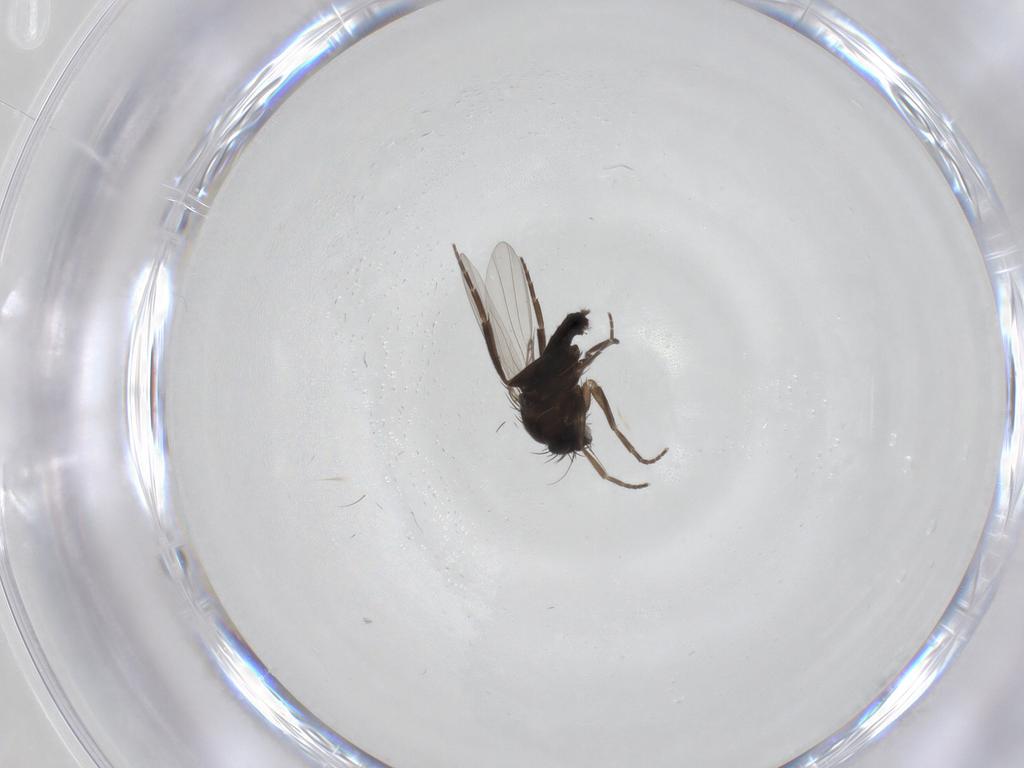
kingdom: Animalia
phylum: Arthropoda
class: Insecta
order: Diptera
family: Phoridae
